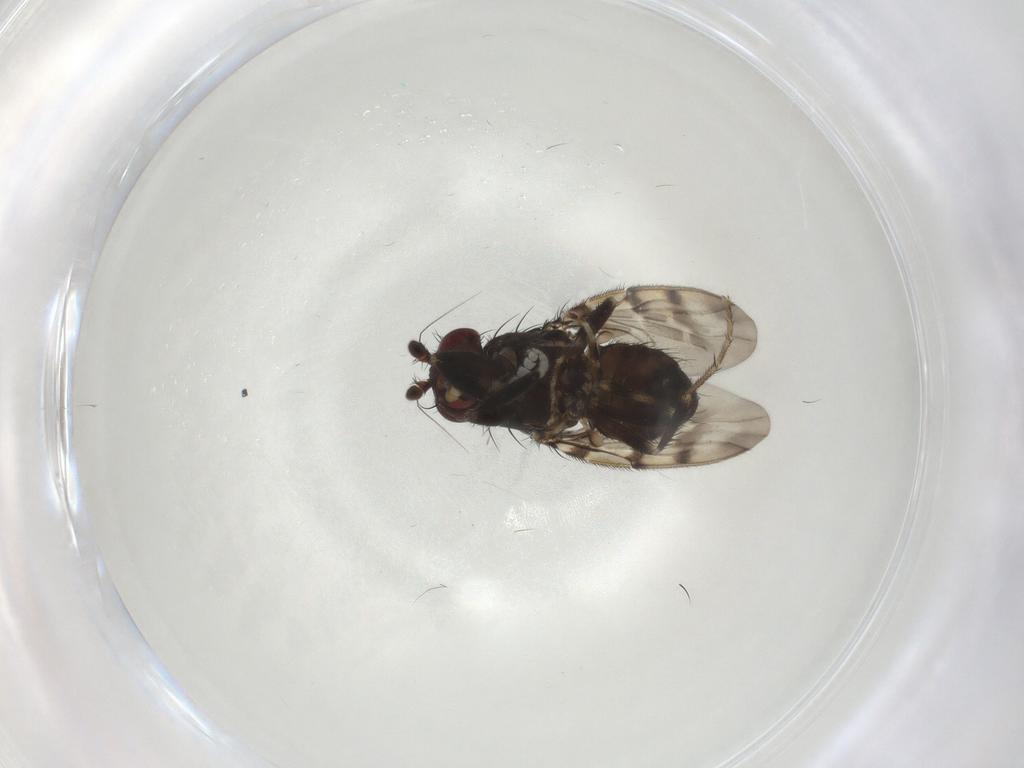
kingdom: Animalia
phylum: Arthropoda
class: Insecta
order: Diptera
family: Sphaeroceridae
